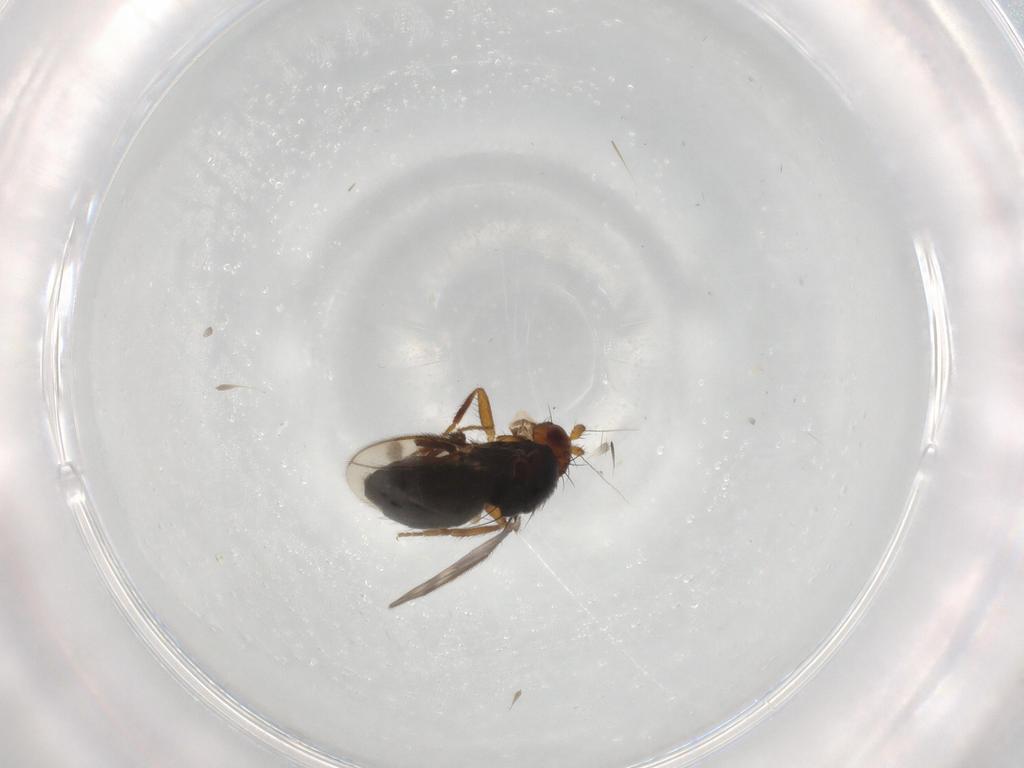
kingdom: Animalia
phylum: Arthropoda
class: Insecta
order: Diptera
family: Sphaeroceridae
